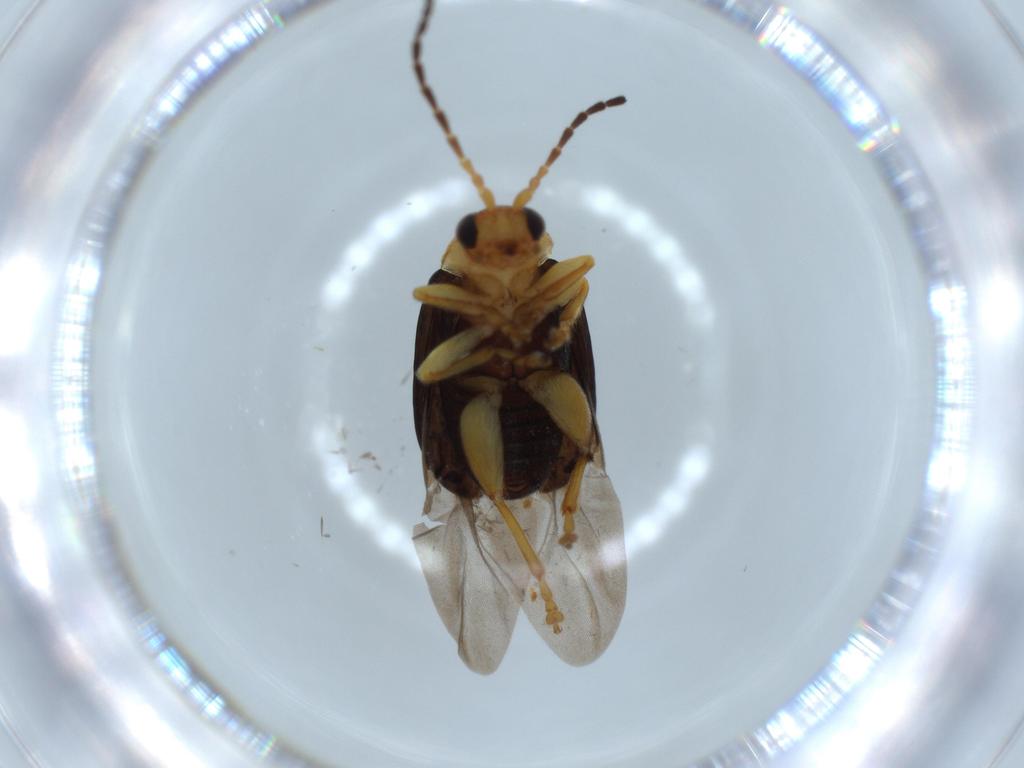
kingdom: Animalia
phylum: Arthropoda
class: Insecta
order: Coleoptera
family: Chrysomelidae
